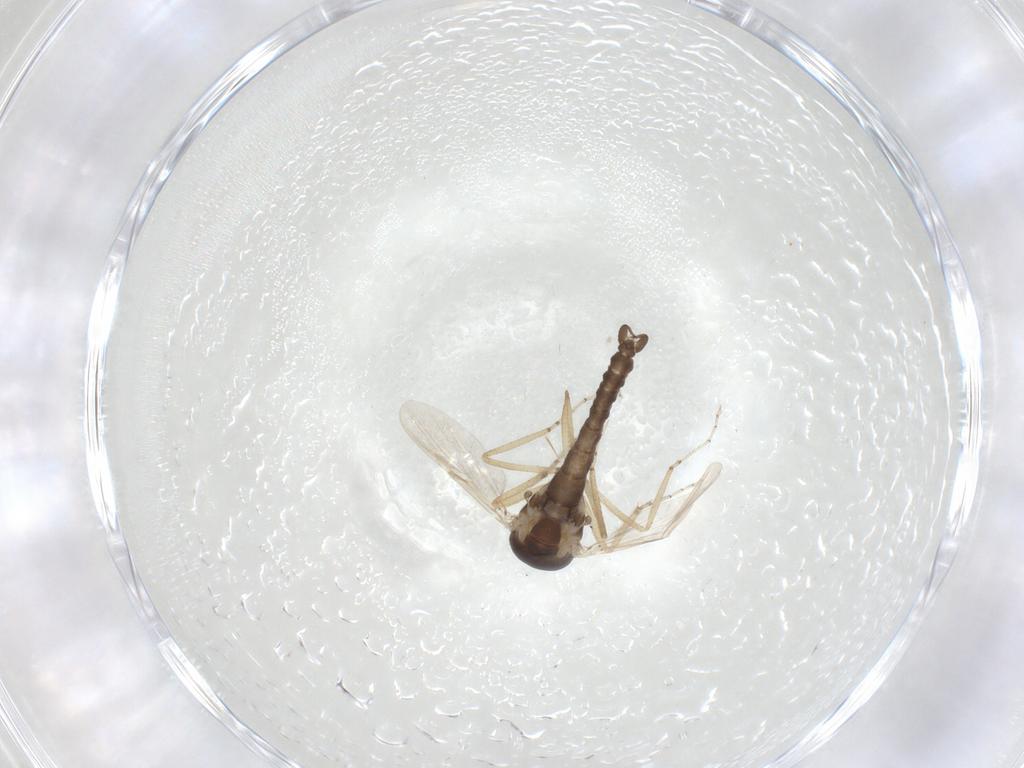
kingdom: Animalia
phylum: Arthropoda
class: Insecta
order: Diptera
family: Ceratopogonidae
